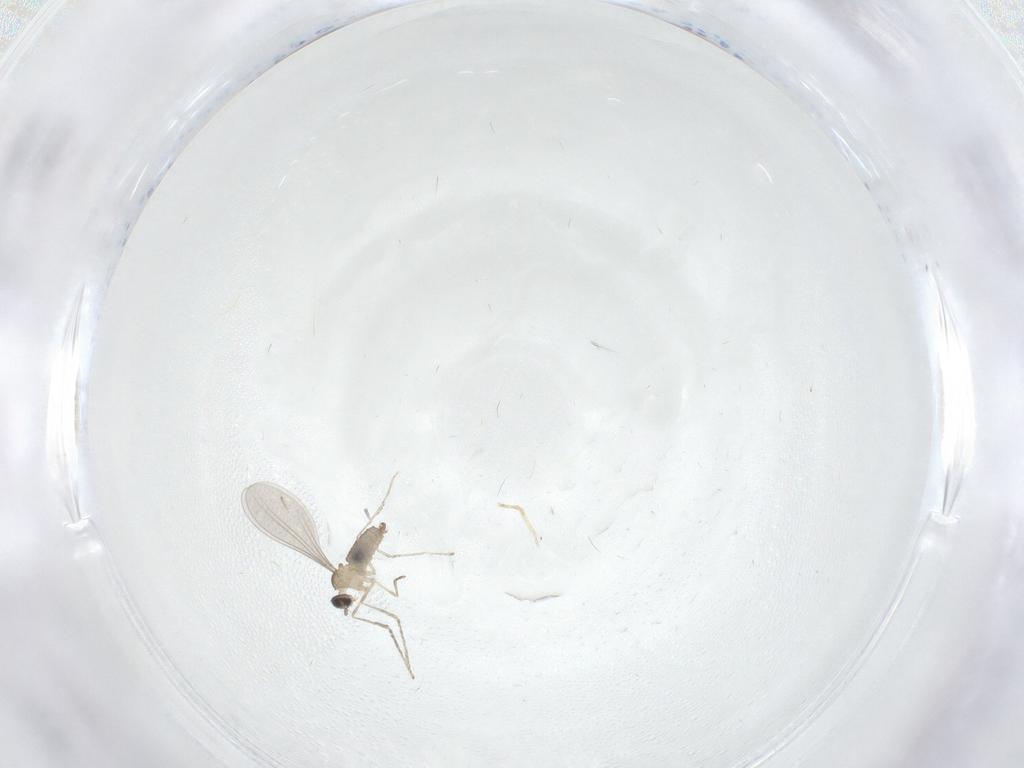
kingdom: Animalia
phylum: Arthropoda
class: Insecta
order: Diptera
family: Cecidomyiidae
